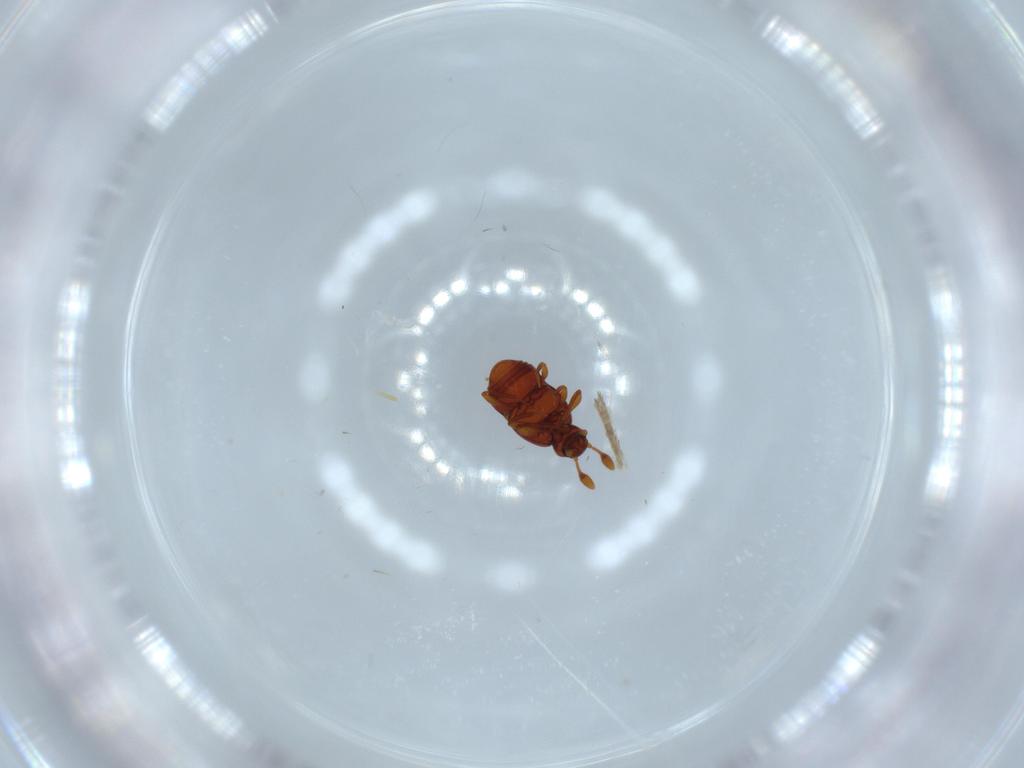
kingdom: Animalia
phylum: Arthropoda
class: Insecta
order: Coleoptera
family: Staphylinidae
